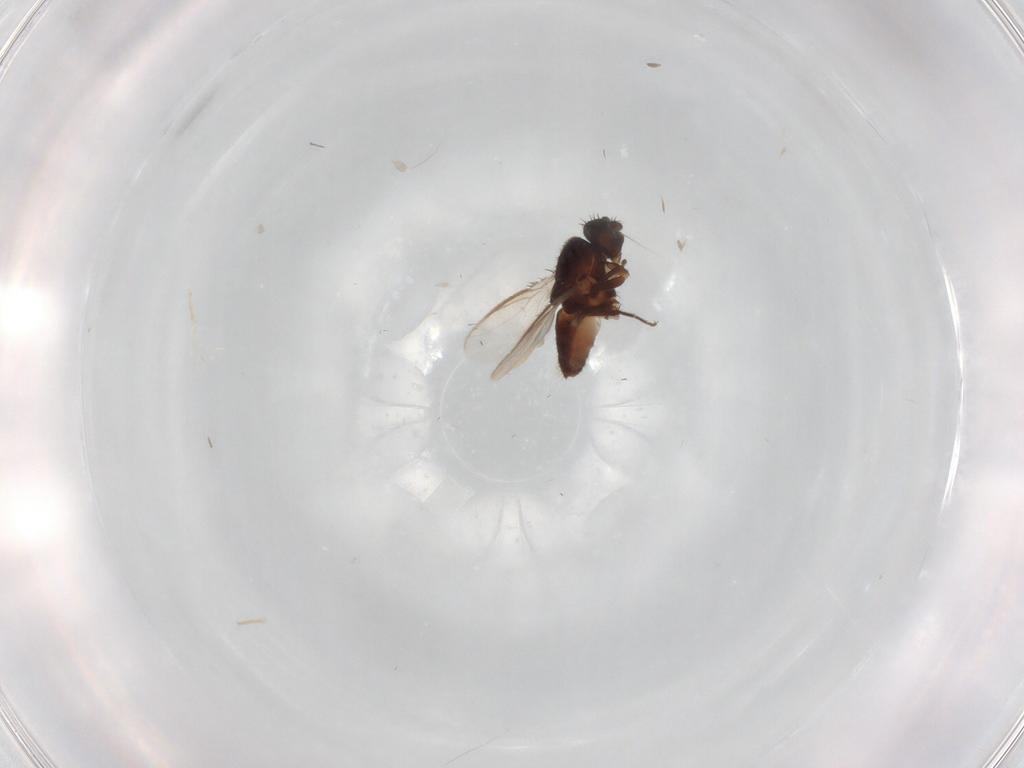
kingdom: Animalia
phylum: Arthropoda
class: Insecta
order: Diptera
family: Sphaeroceridae
